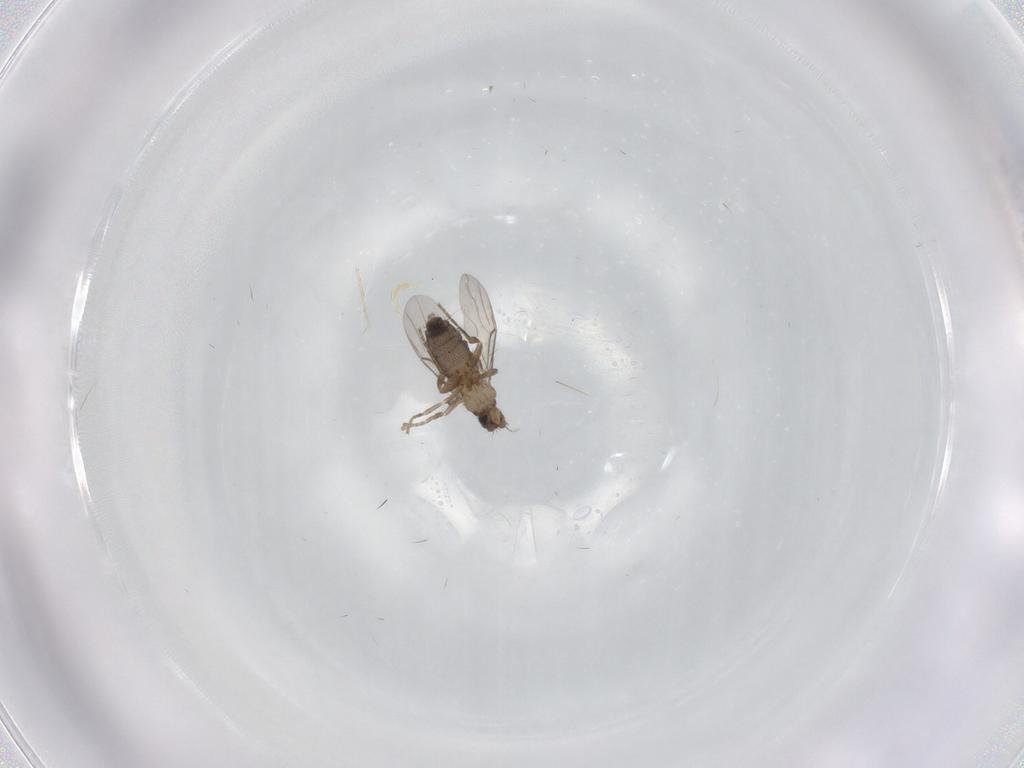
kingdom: Animalia
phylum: Arthropoda
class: Insecta
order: Diptera
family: Phoridae
